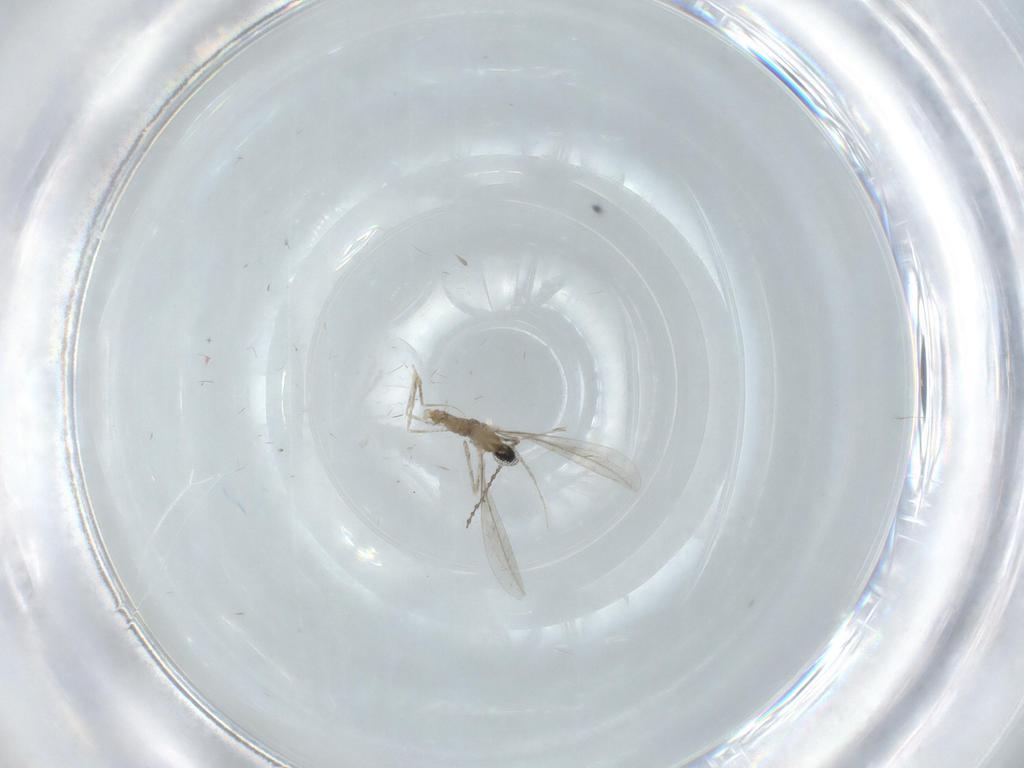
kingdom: Animalia
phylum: Arthropoda
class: Insecta
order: Diptera
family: Cecidomyiidae
